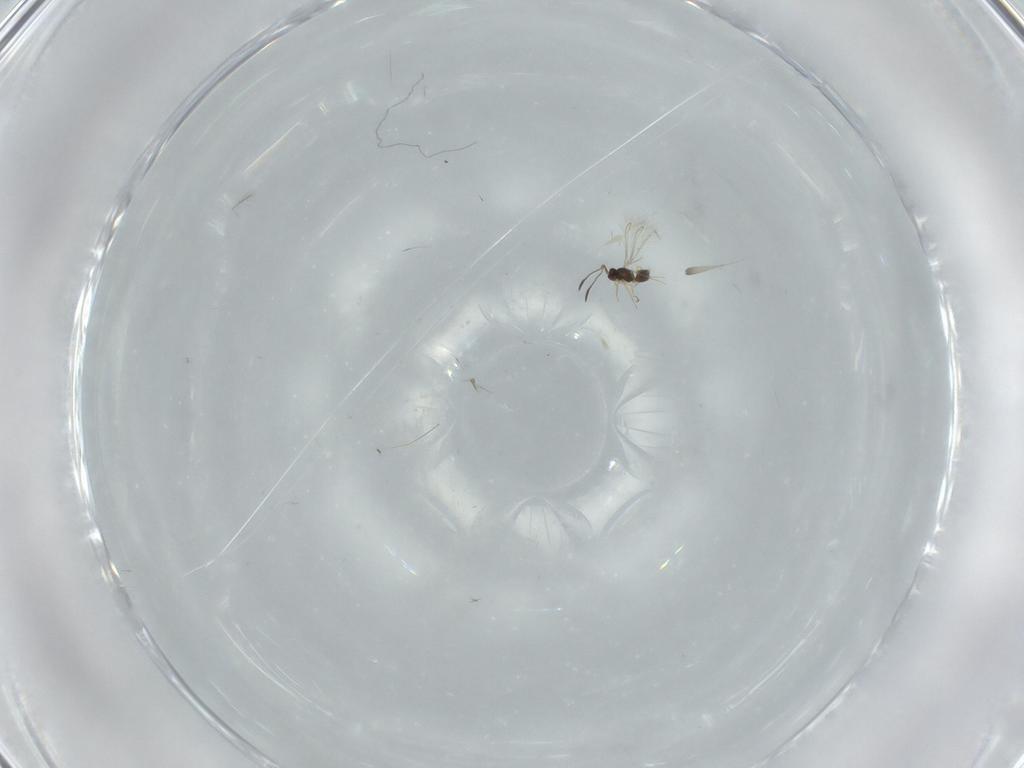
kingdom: Animalia
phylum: Arthropoda
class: Insecta
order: Hymenoptera
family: Mymaridae
